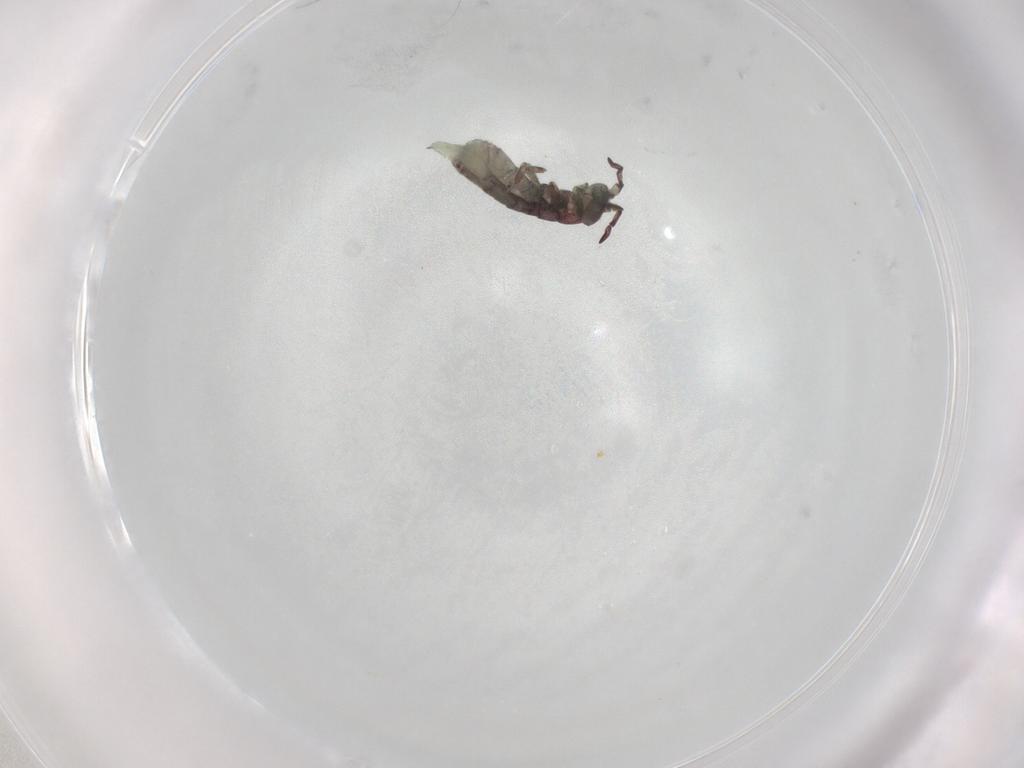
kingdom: Animalia
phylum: Arthropoda
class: Collembola
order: Entomobryomorpha
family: Isotomidae
